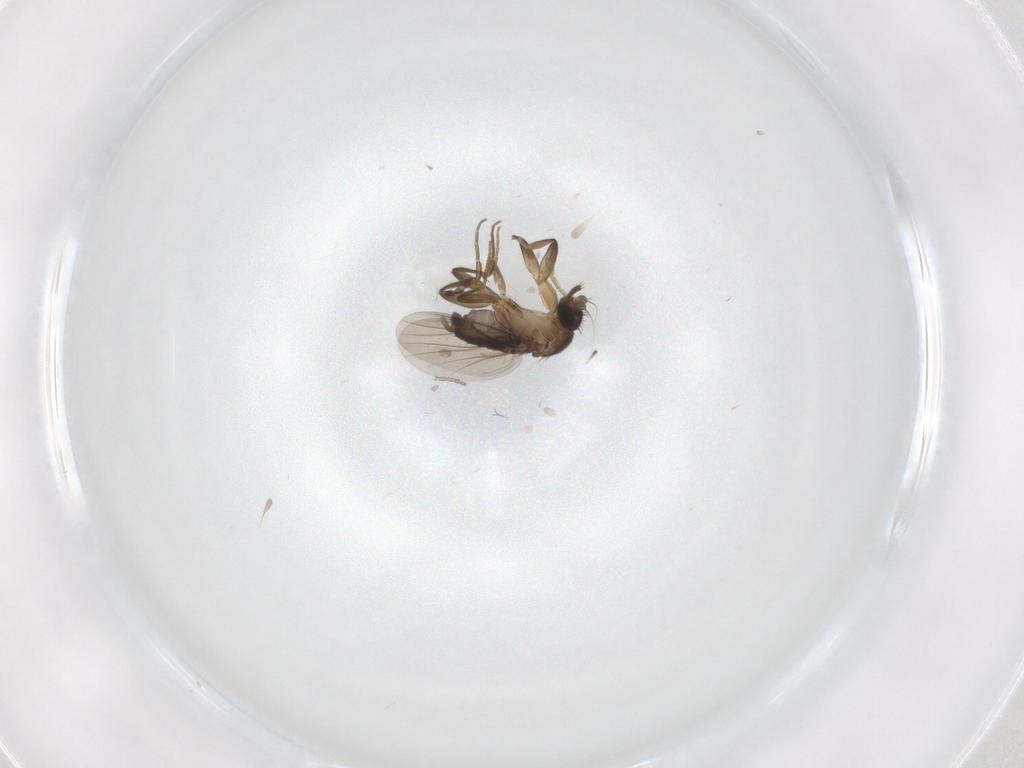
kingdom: Animalia
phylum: Arthropoda
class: Insecta
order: Diptera
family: Phoridae
